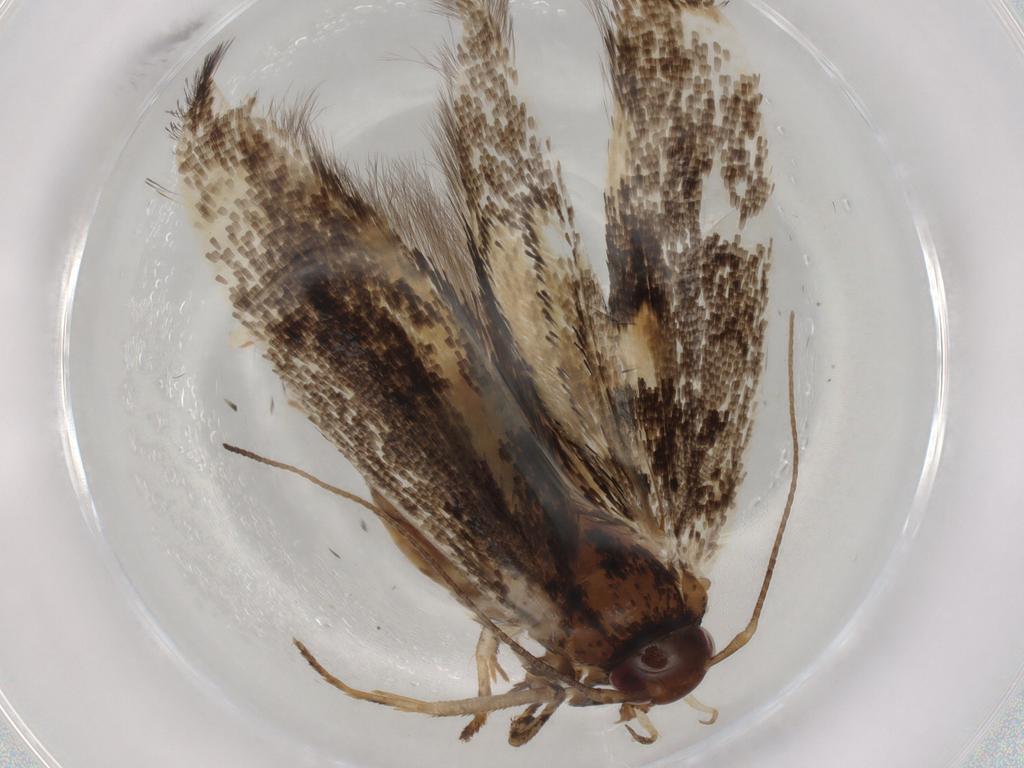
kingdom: Animalia
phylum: Arthropoda
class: Insecta
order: Lepidoptera
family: Cosmopterigidae
